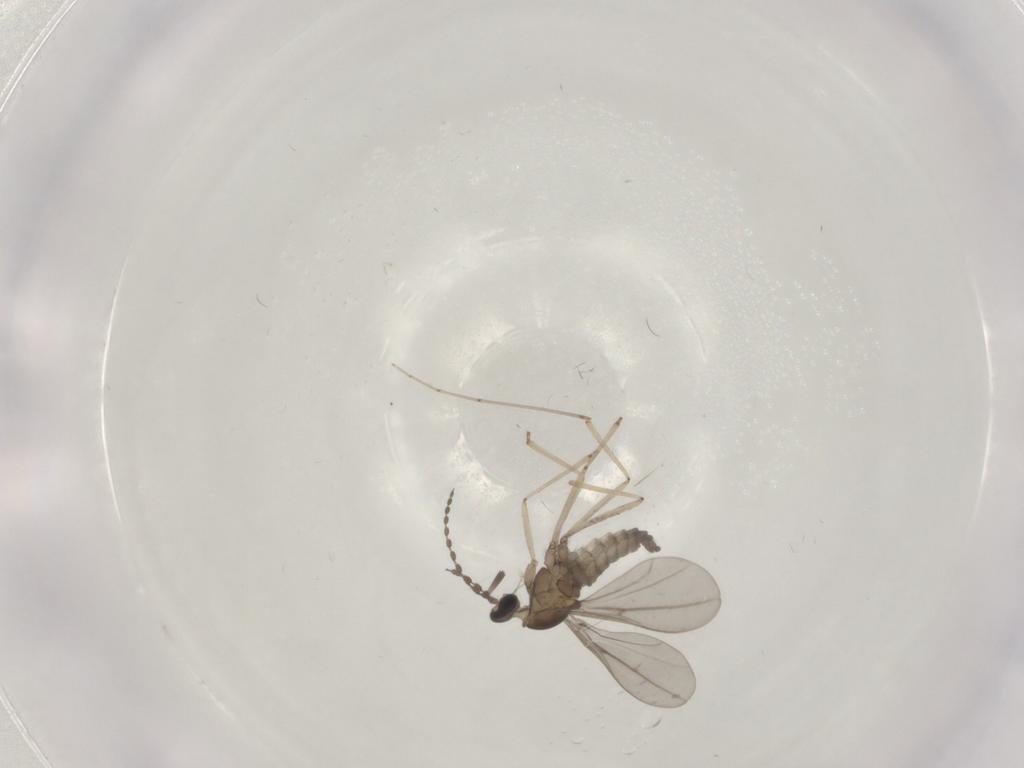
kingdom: Animalia
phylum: Arthropoda
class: Insecta
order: Diptera
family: Cecidomyiidae
